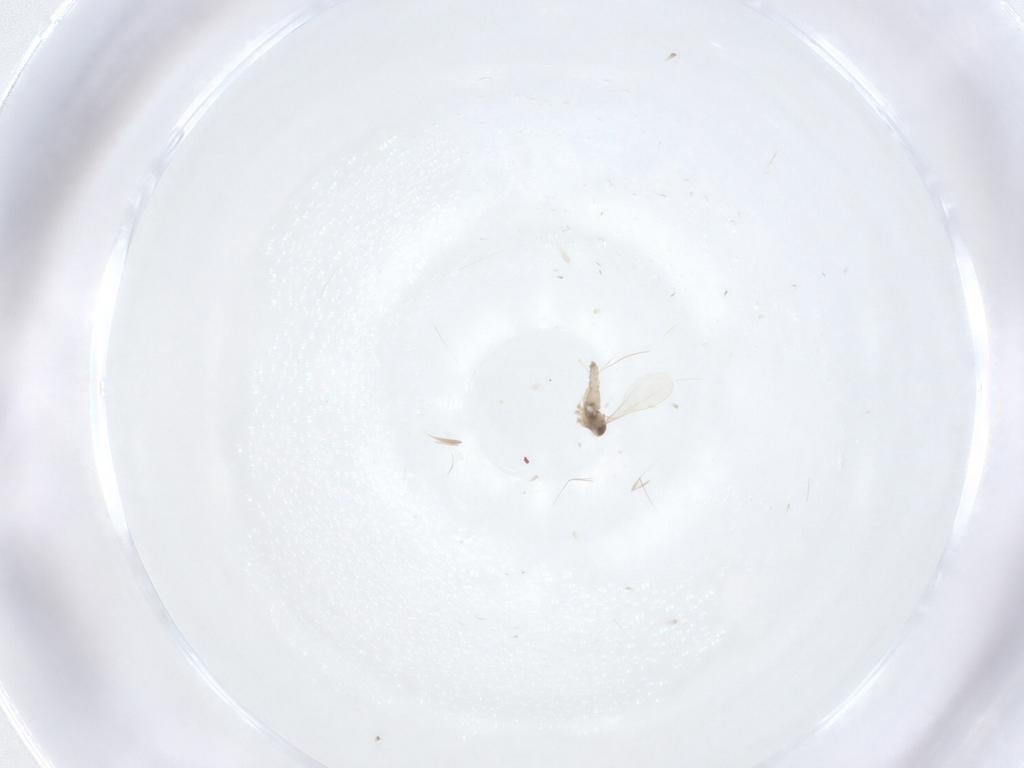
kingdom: Animalia
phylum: Arthropoda
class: Insecta
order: Diptera
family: Cecidomyiidae
